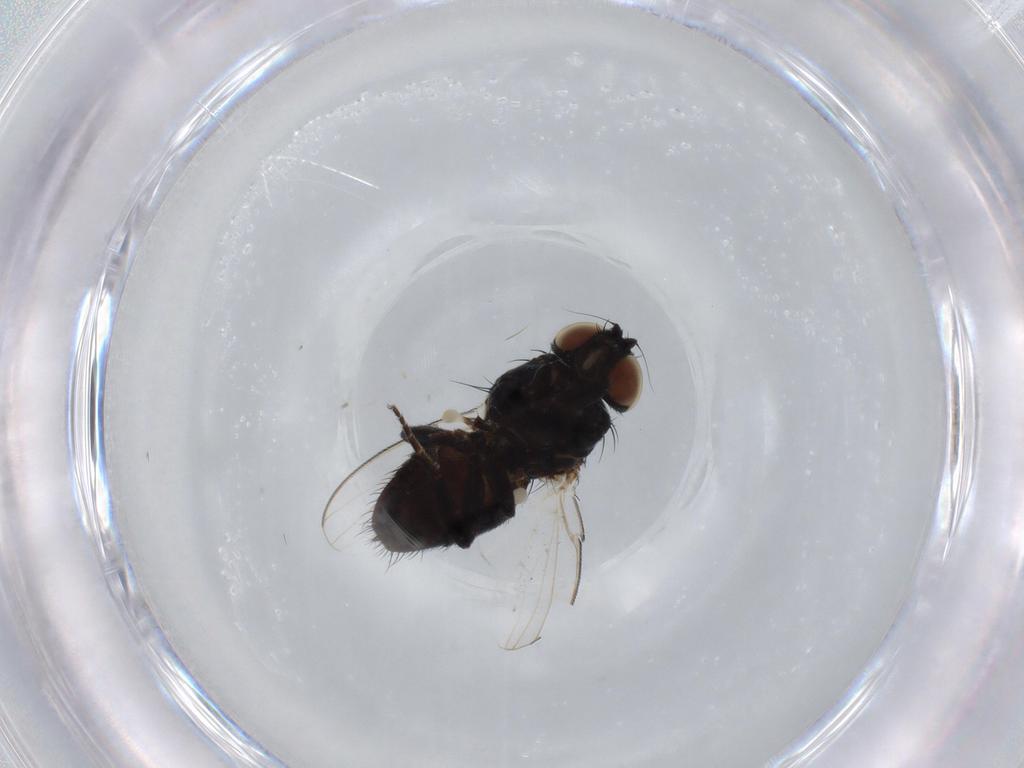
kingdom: Animalia
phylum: Arthropoda
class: Insecta
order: Diptera
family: Milichiidae
